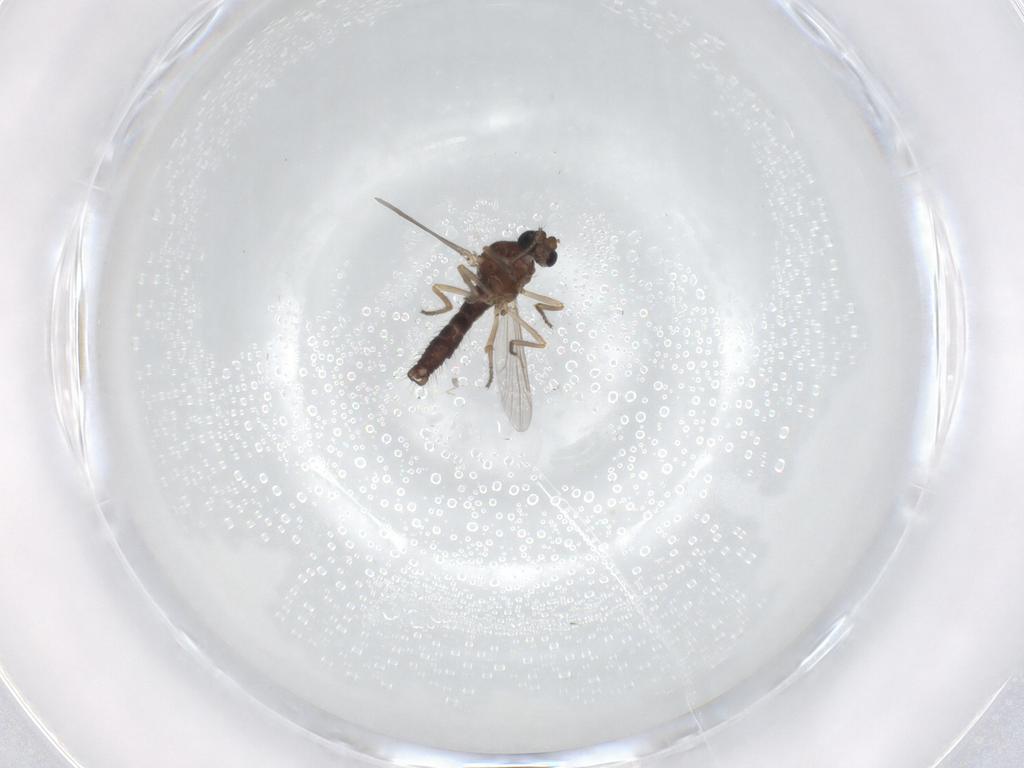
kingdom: Animalia
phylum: Arthropoda
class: Insecta
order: Diptera
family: Ceratopogonidae
